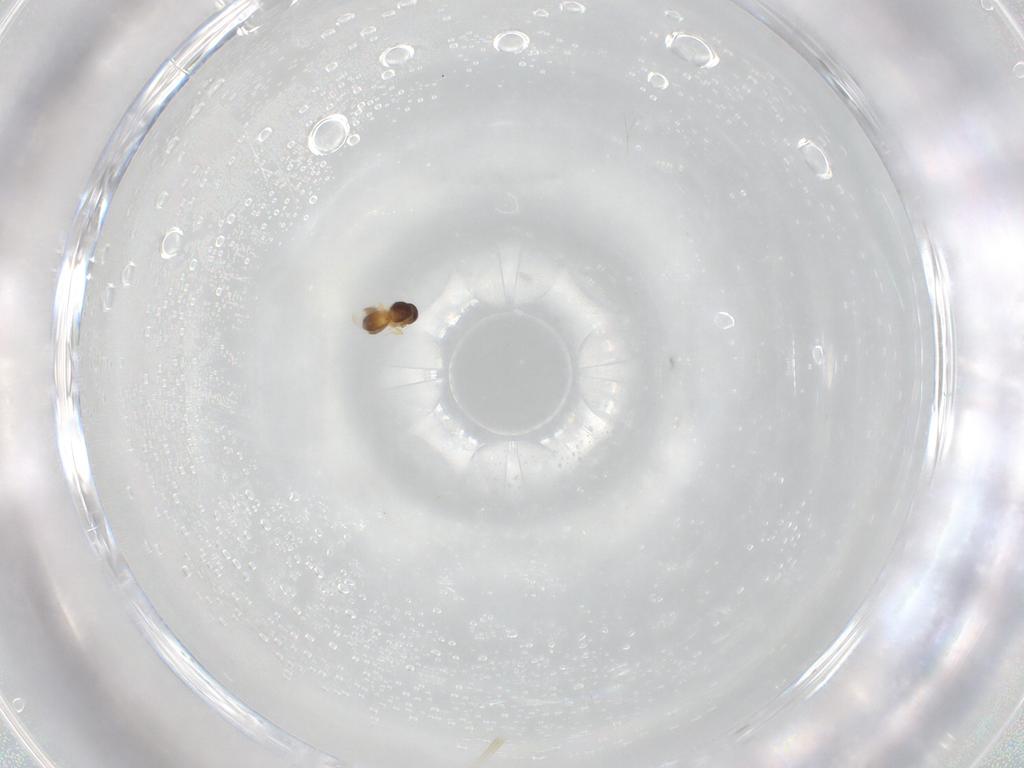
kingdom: Animalia
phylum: Arthropoda
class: Insecta
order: Hymenoptera
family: Platygastridae
